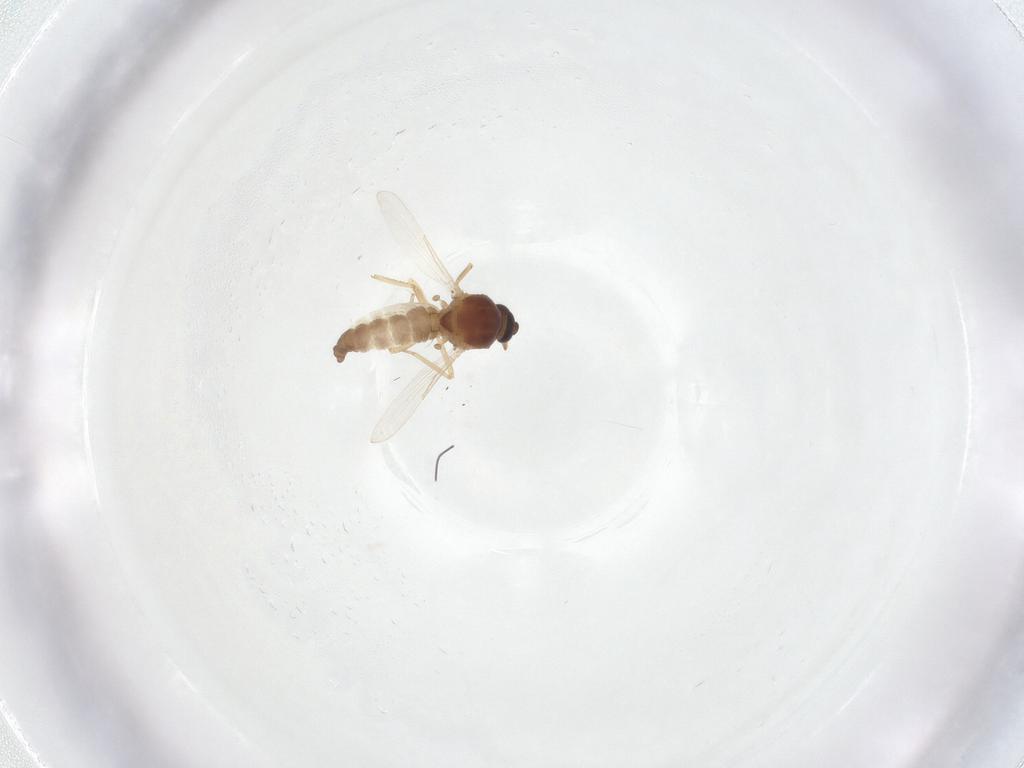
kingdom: Animalia
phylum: Arthropoda
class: Insecta
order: Diptera
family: Ceratopogonidae
